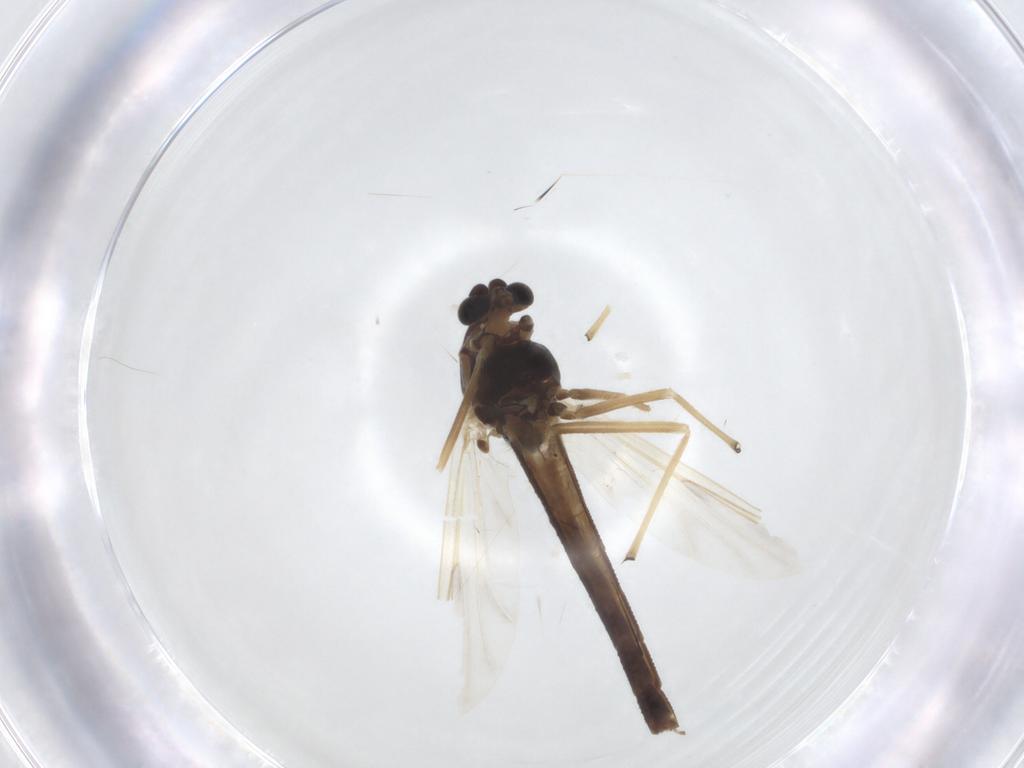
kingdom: Animalia
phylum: Arthropoda
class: Insecta
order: Diptera
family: Chironomidae
